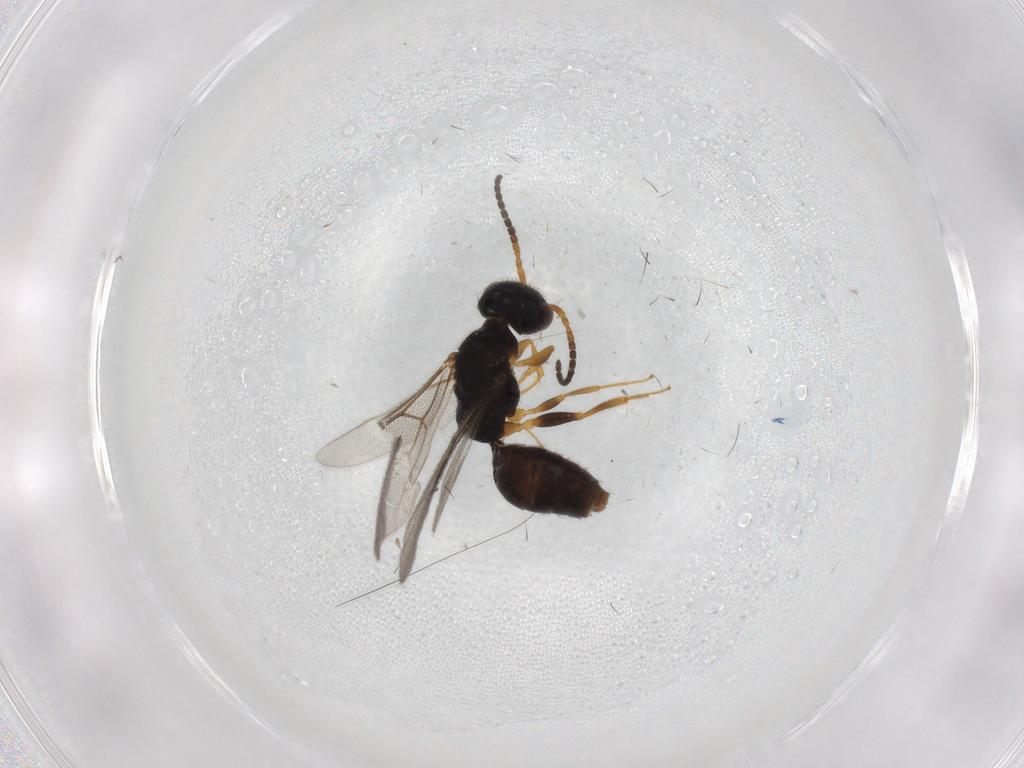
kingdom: Animalia
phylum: Arthropoda
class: Insecta
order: Hymenoptera
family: Bethylidae
